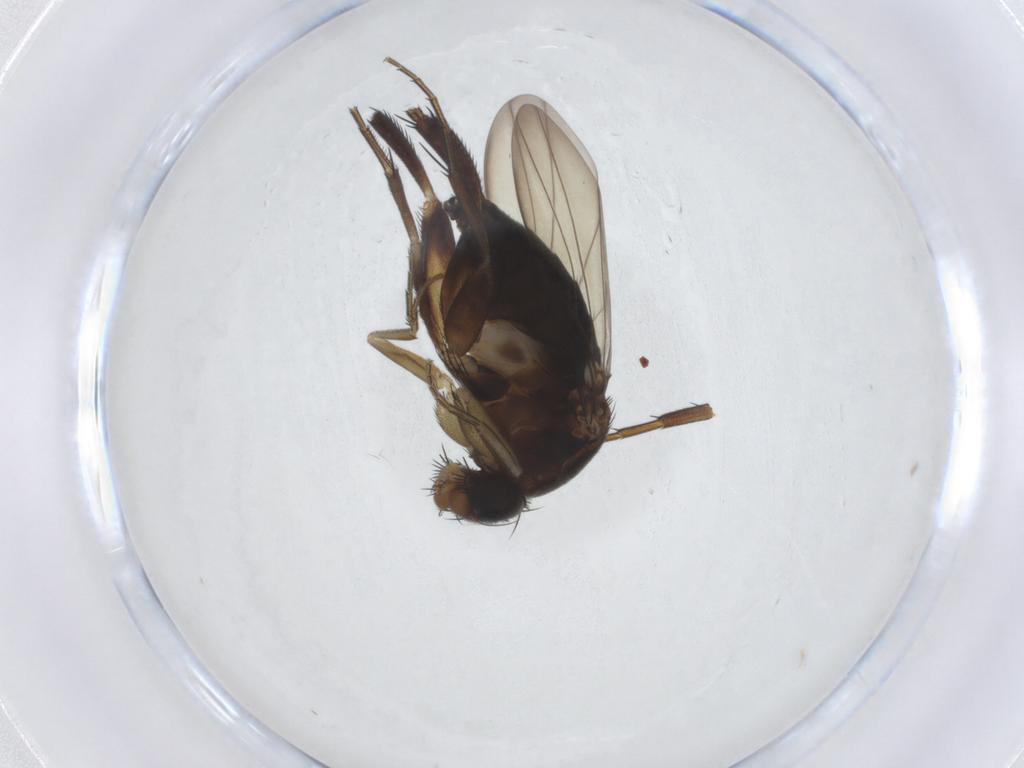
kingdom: Animalia
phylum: Arthropoda
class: Insecta
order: Diptera
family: Phoridae
